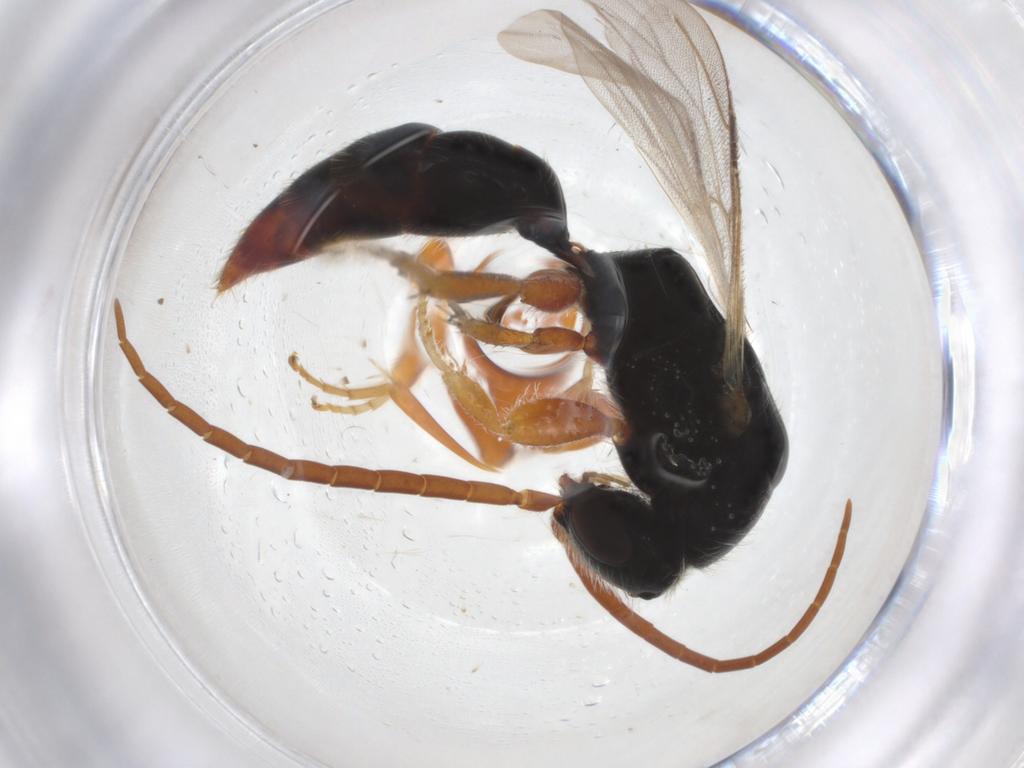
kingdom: Animalia
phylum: Arthropoda
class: Insecta
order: Hymenoptera
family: Bethylidae
